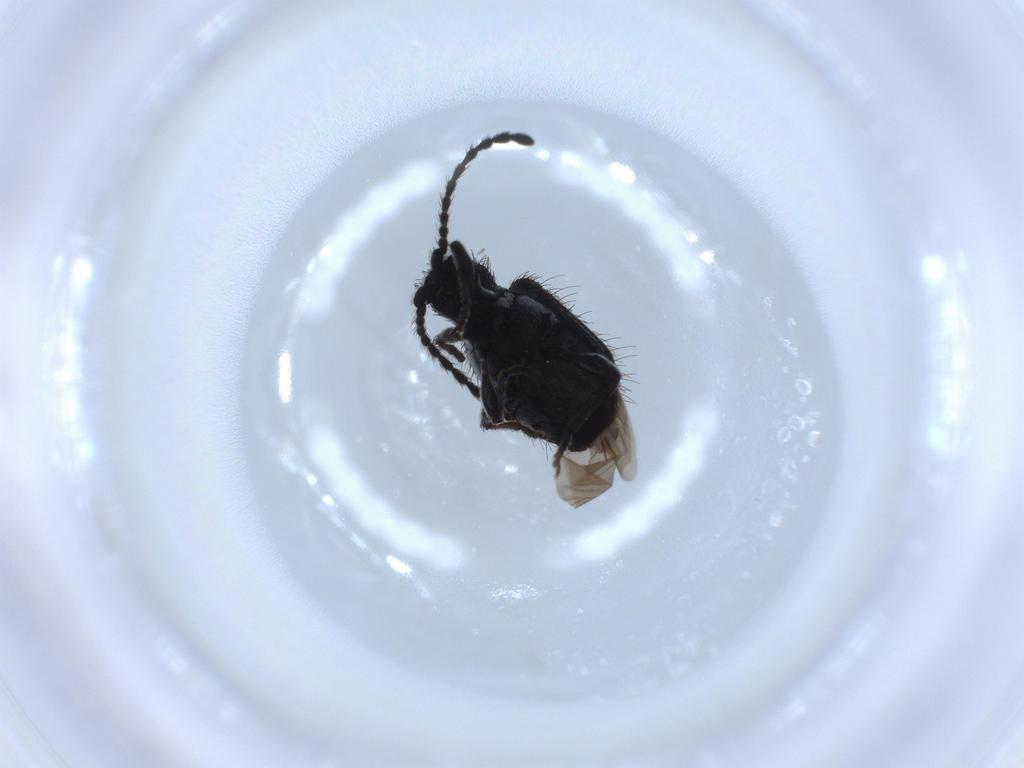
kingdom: Animalia
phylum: Arthropoda
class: Insecta
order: Coleoptera
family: Ptinidae
